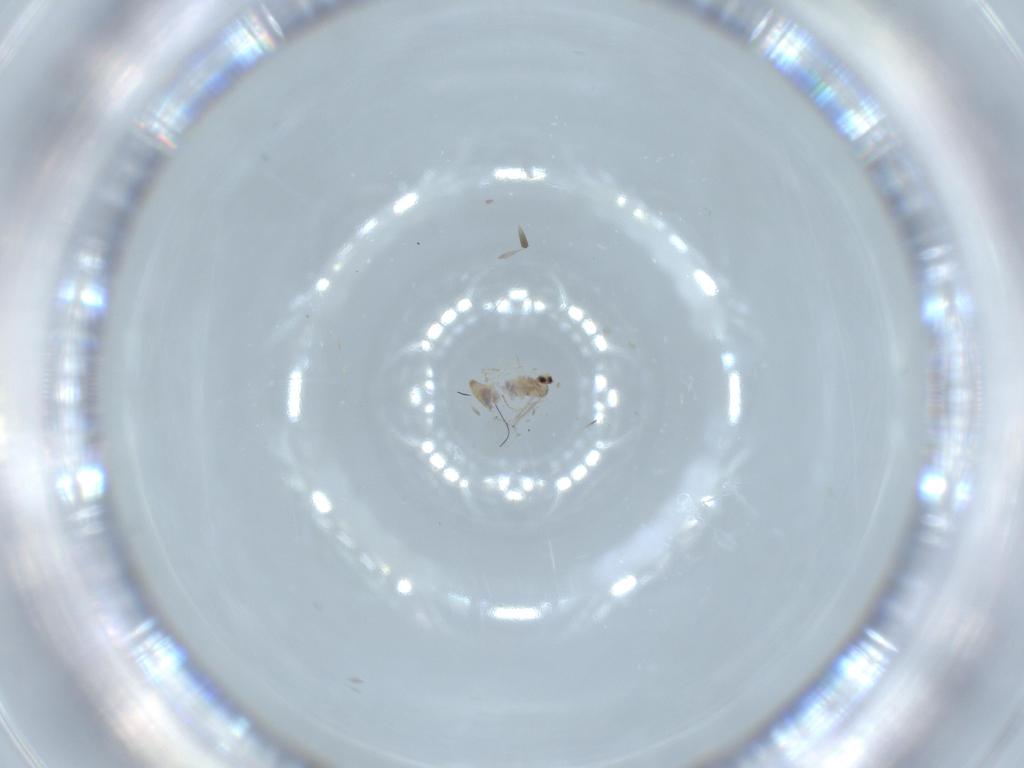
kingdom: Animalia
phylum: Arthropoda
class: Insecta
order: Diptera
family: Cecidomyiidae
